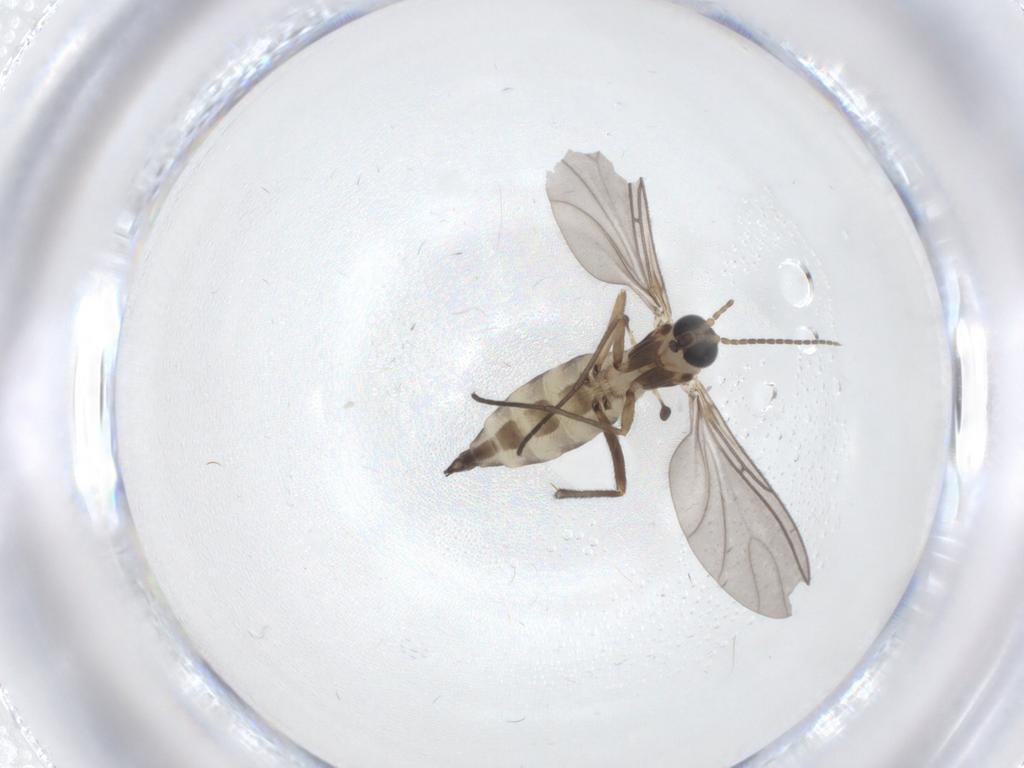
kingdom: Animalia
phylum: Arthropoda
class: Insecta
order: Diptera
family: Sciaridae
